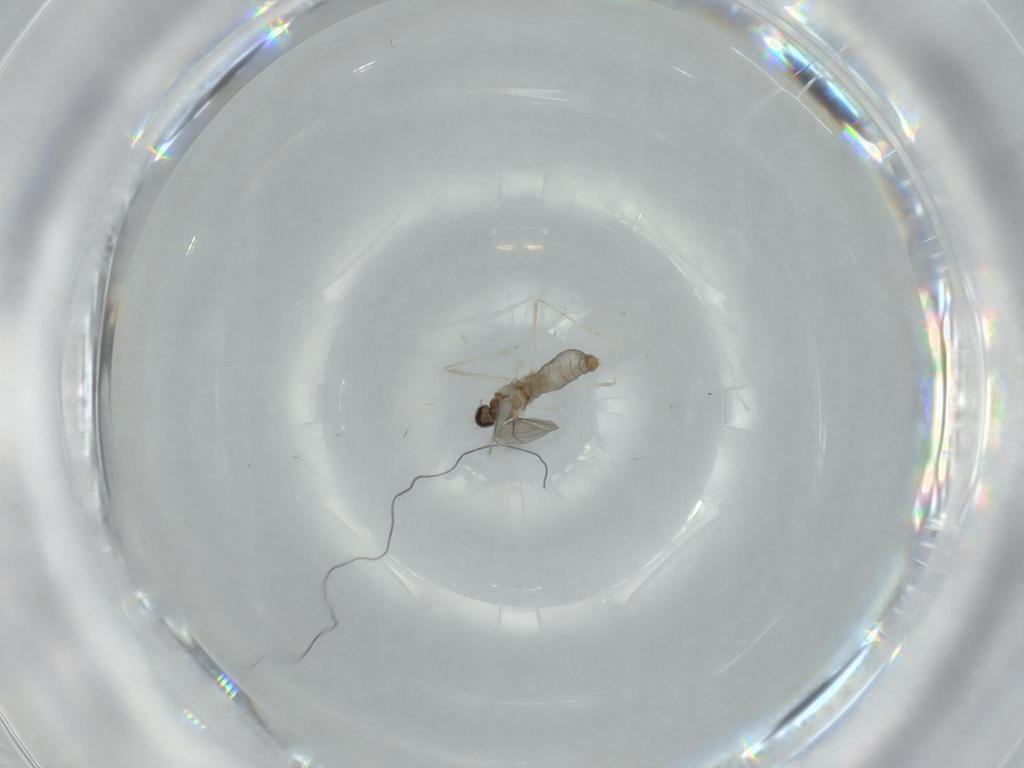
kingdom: Animalia
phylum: Arthropoda
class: Insecta
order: Diptera
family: Cecidomyiidae
